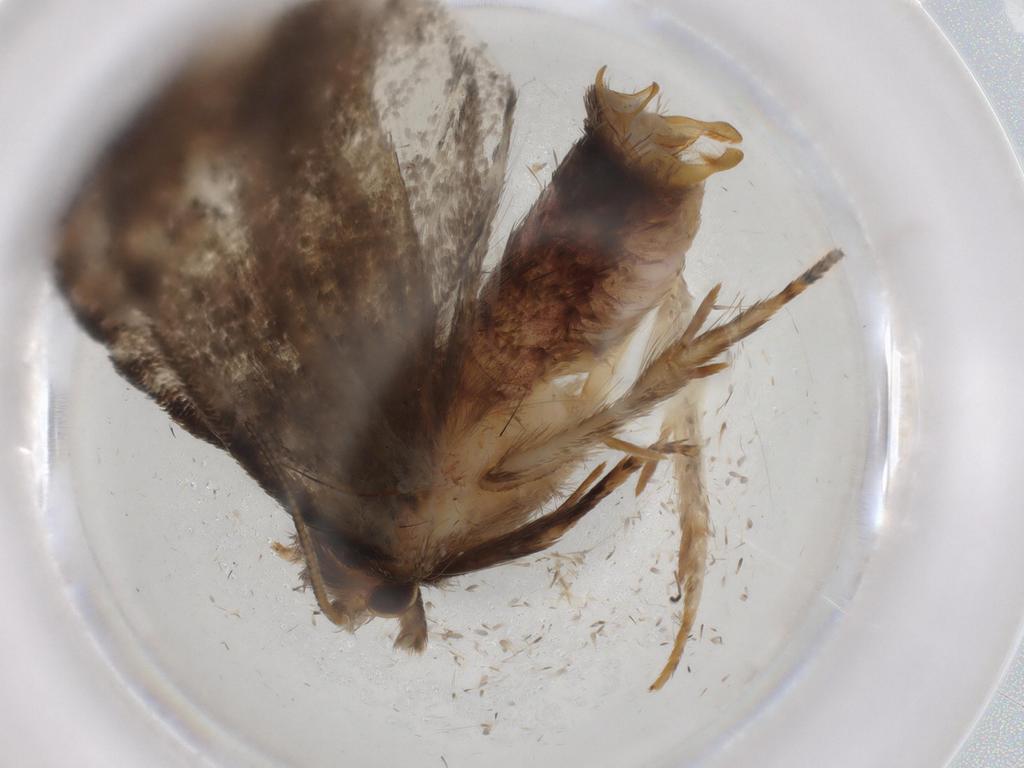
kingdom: Animalia
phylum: Arthropoda
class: Insecta
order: Lepidoptera
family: Tineidae
